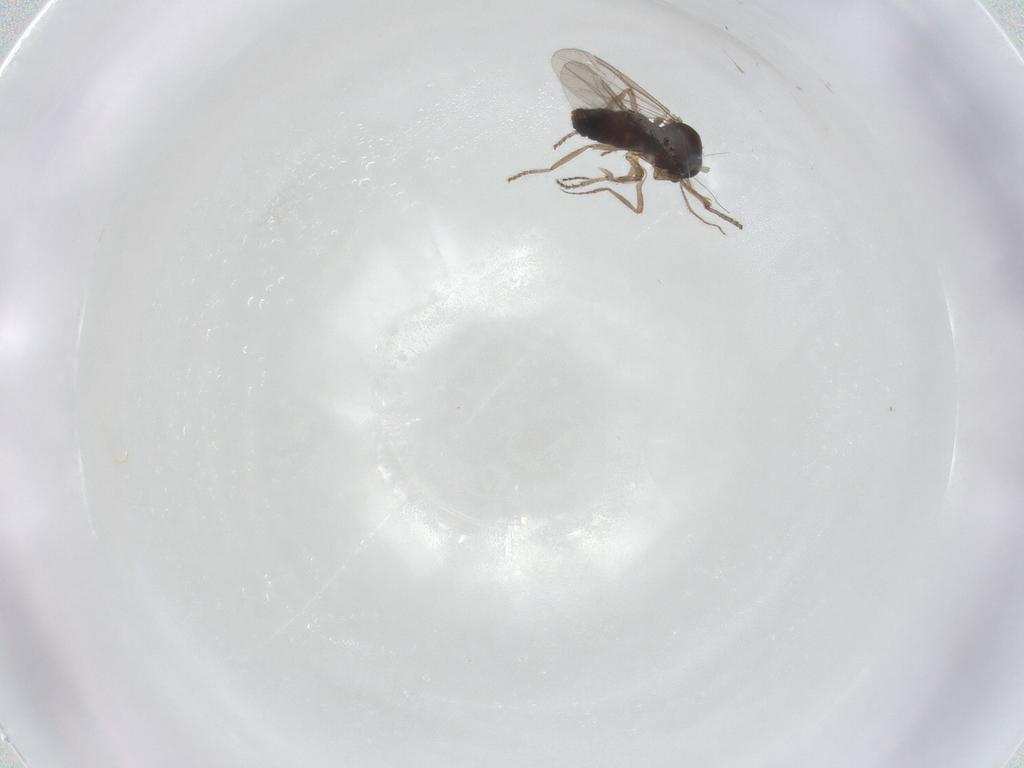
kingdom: Animalia
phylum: Arthropoda
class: Insecta
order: Diptera
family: Ceratopogonidae
